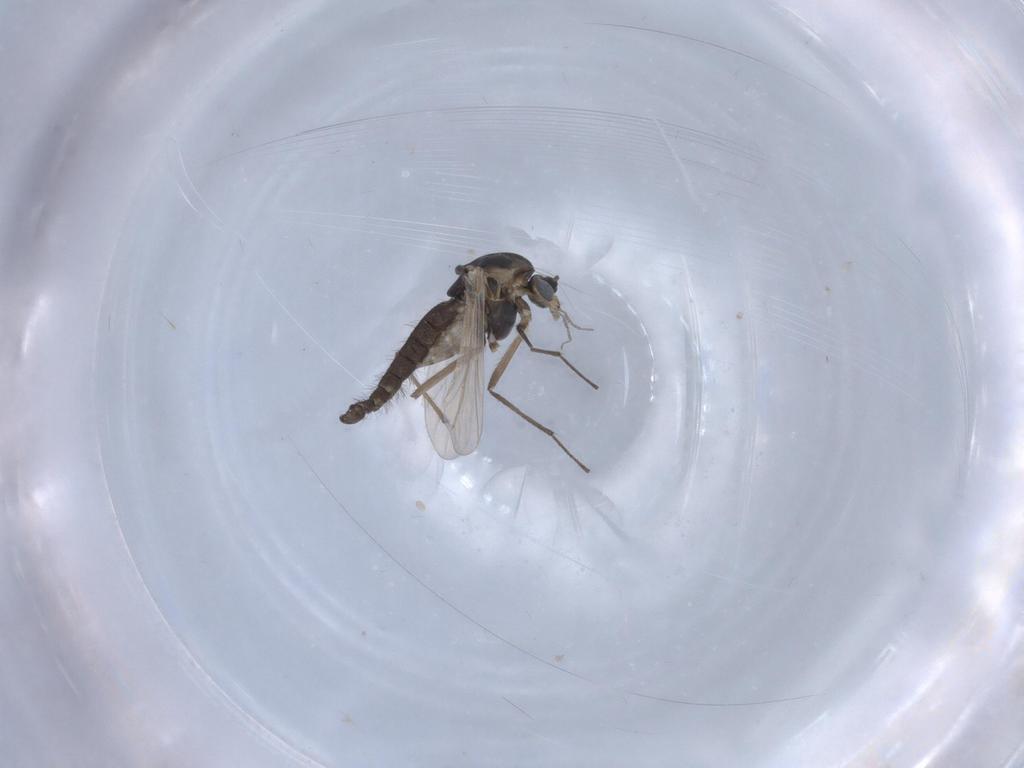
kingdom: Animalia
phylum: Arthropoda
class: Insecta
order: Diptera
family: Chironomidae
